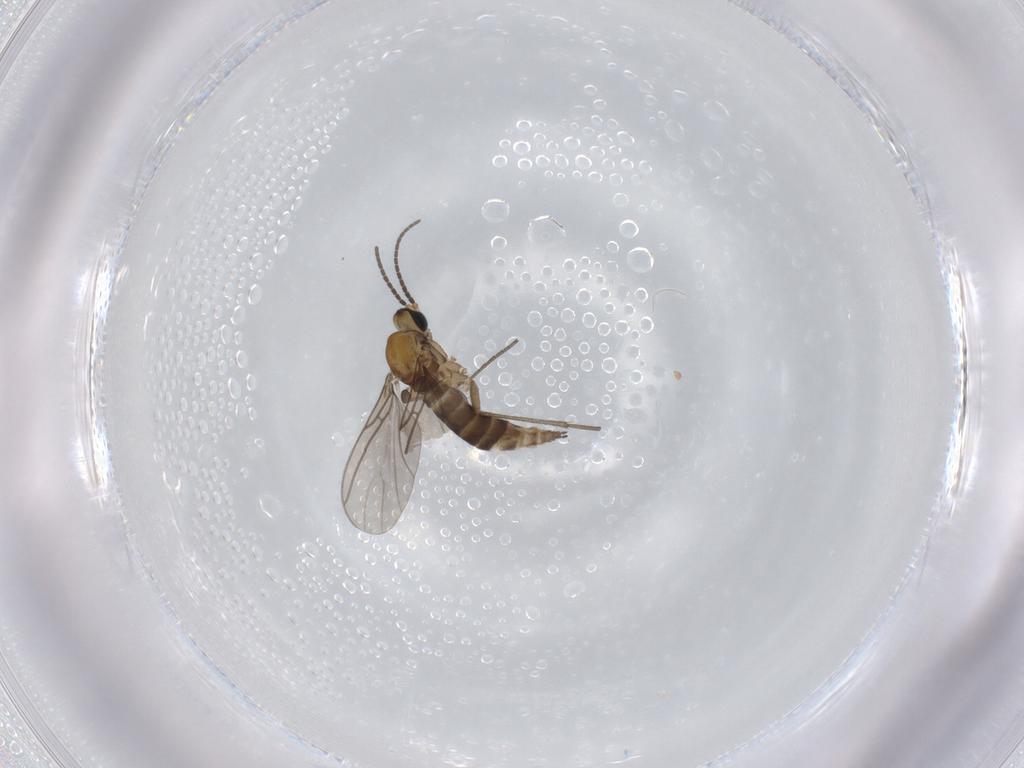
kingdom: Animalia
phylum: Arthropoda
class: Insecta
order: Diptera
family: Sciaridae
